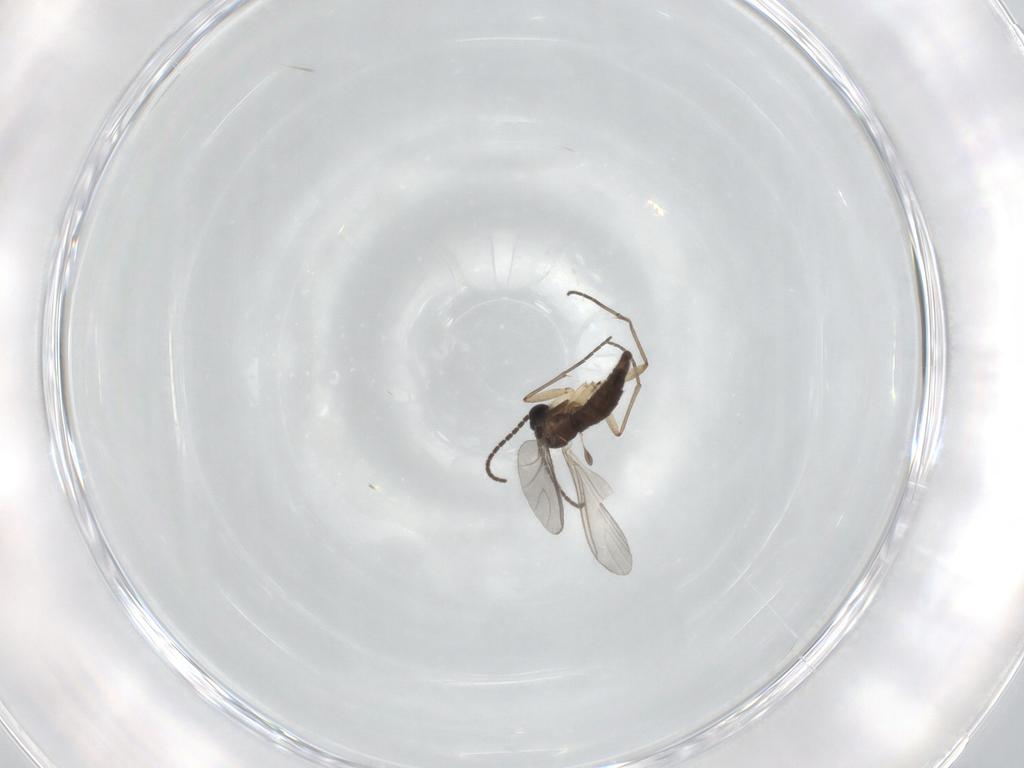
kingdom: Animalia
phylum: Arthropoda
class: Insecta
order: Diptera
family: Sciaridae
